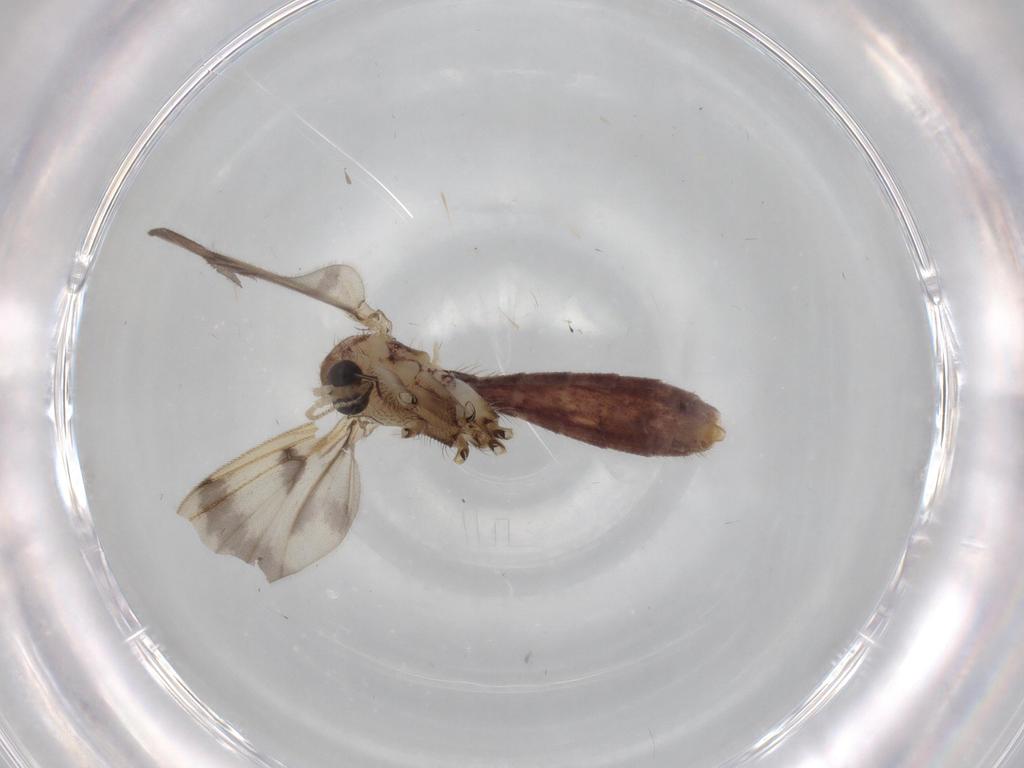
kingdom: Animalia
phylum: Arthropoda
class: Insecta
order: Diptera
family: Mycetophilidae
